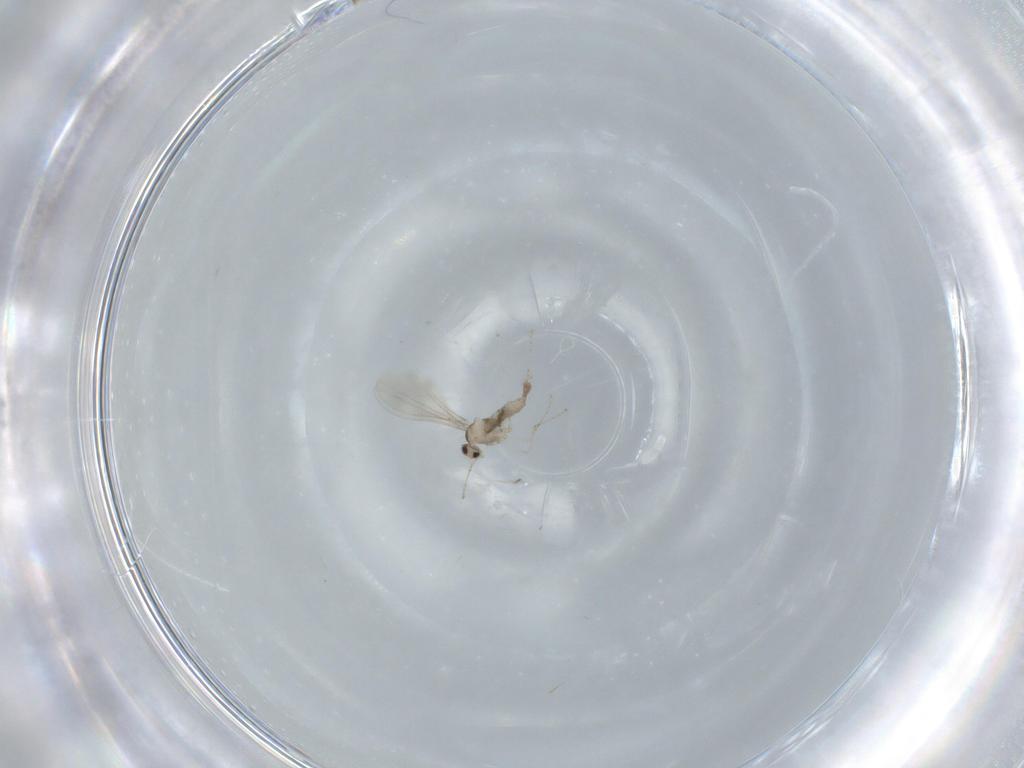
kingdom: Animalia
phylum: Arthropoda
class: Insecta
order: Diptera
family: Cecidomyiidae
